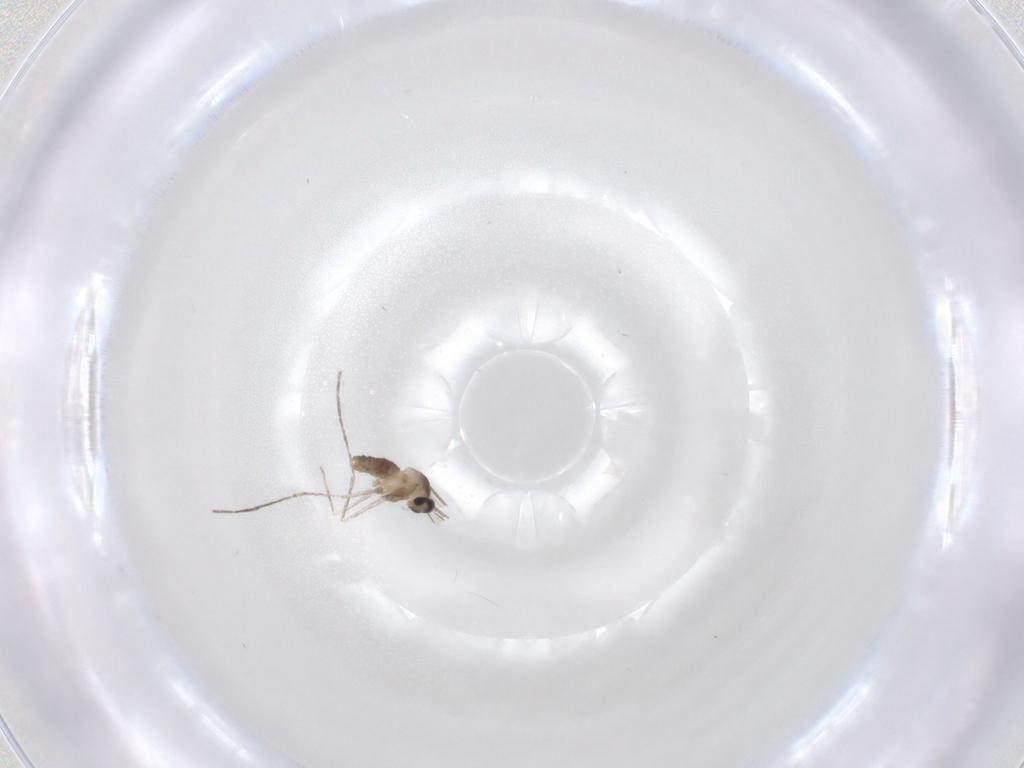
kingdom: Animalia
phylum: Arthropoda
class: Insecta
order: Diptera
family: Cecidomyiidae
